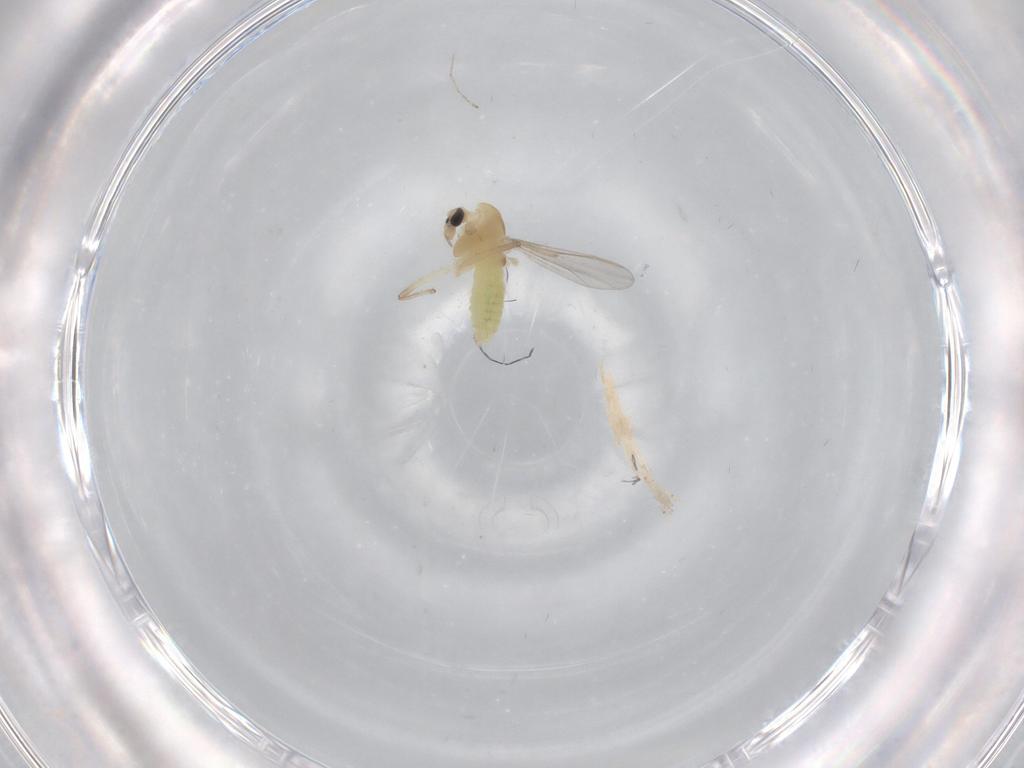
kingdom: Animalia
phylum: Arthropoda
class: Insecta
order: Diptera
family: Chironomidae
